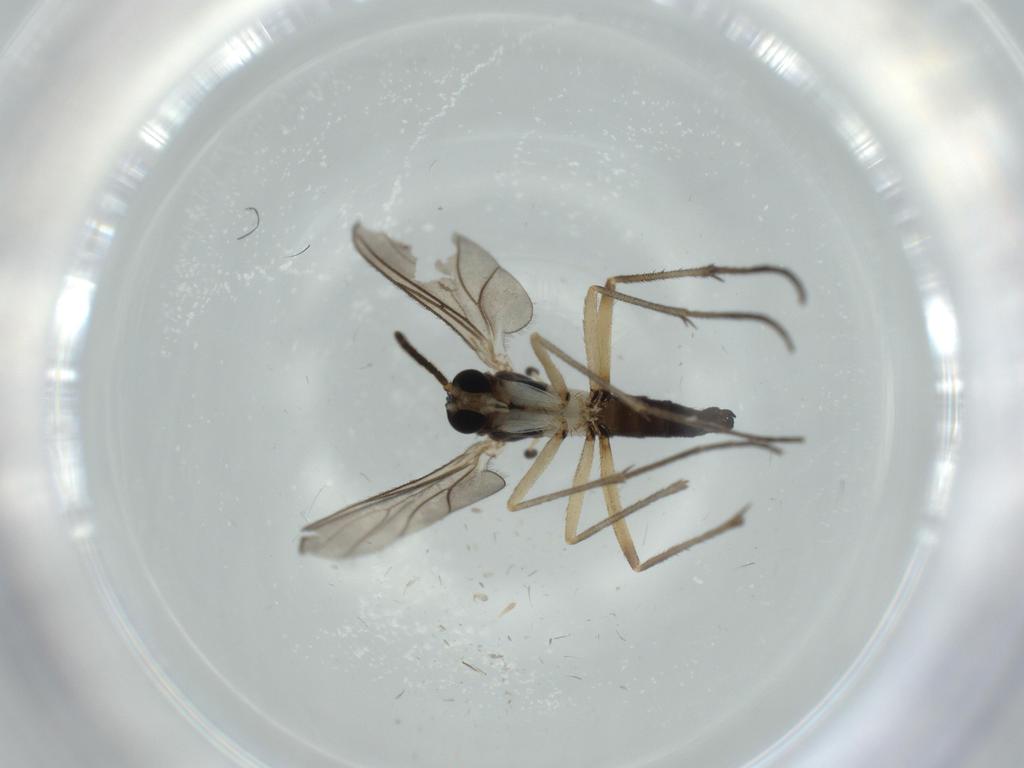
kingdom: Animalia
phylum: Arthropoda
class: Insecta
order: Diptera
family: Sciaridae
